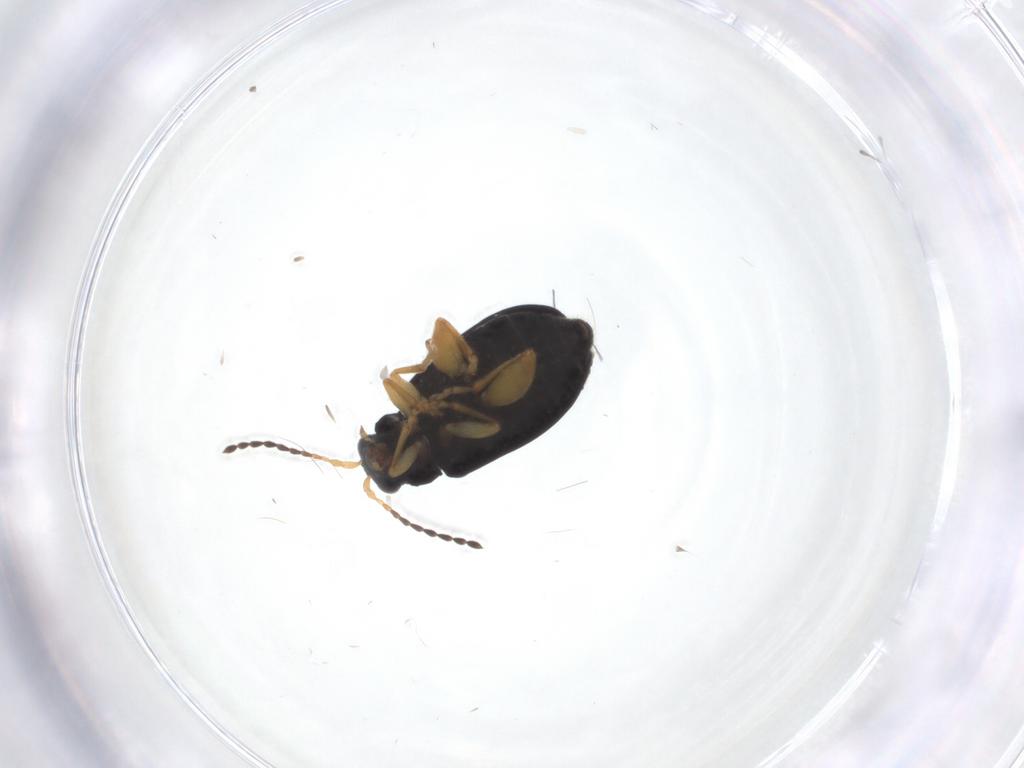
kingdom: Animalia
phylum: Arthropoda
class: Insecta
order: Coleoptera
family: Chrysomelidae
